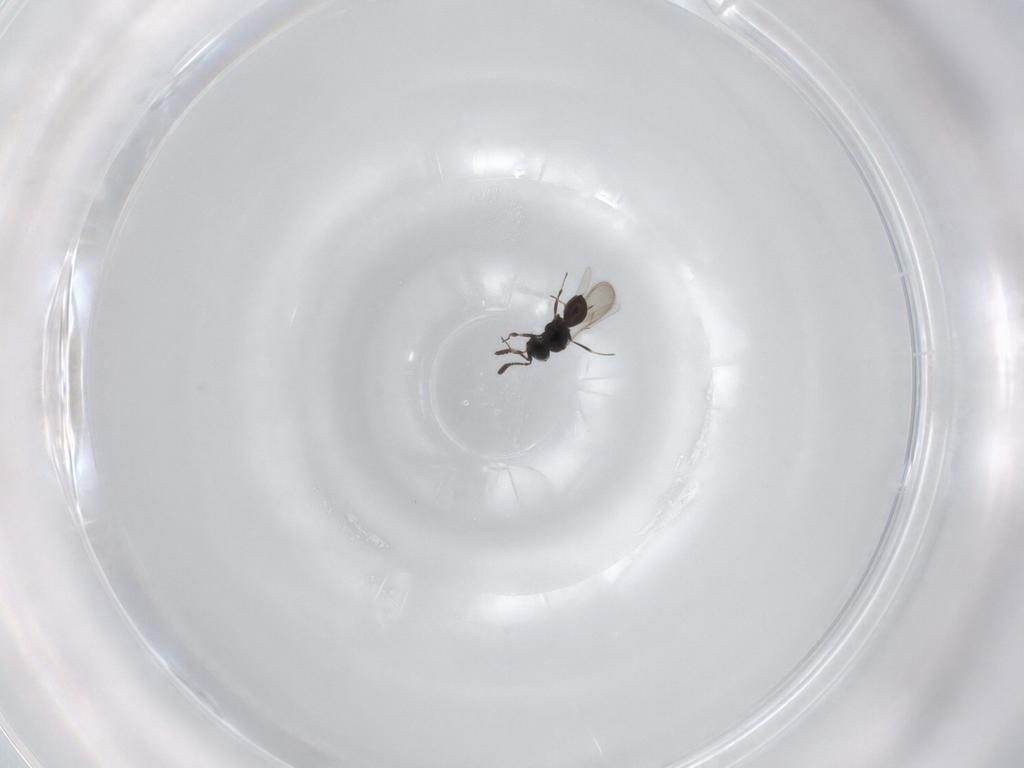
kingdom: Animalia
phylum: Arthropoda
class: Insecta
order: Hymenoptera
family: Scelionidae
